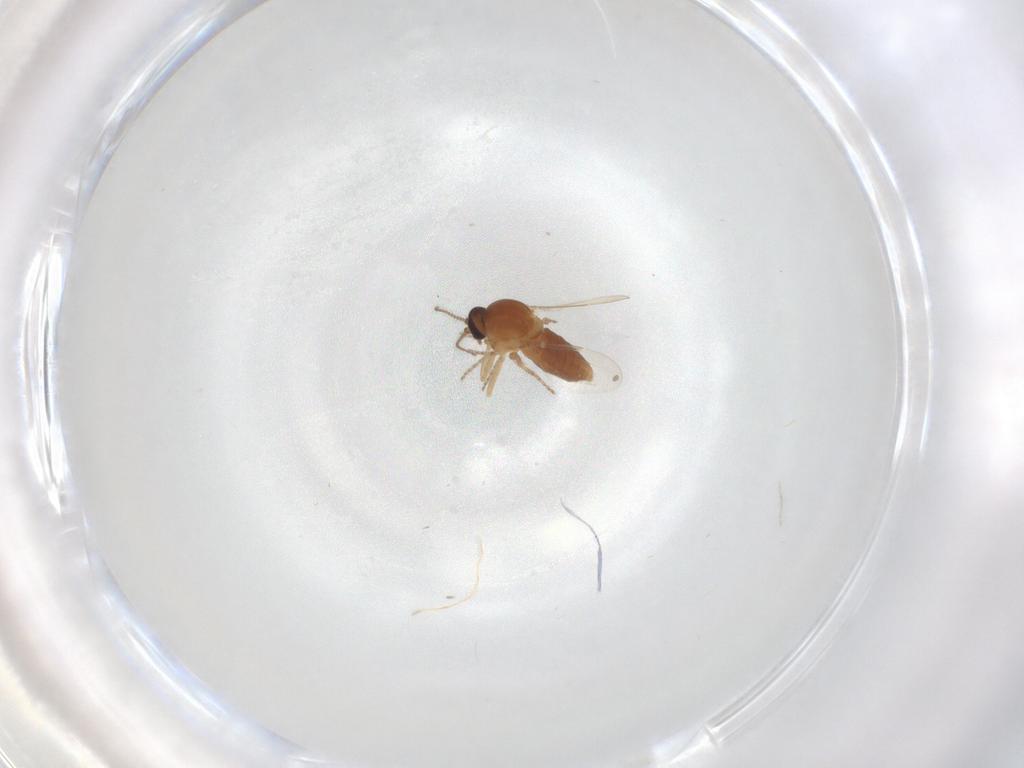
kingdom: Animalia
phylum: Arthropoda
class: Insecta
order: Diptera
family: Ceratopogonidae
